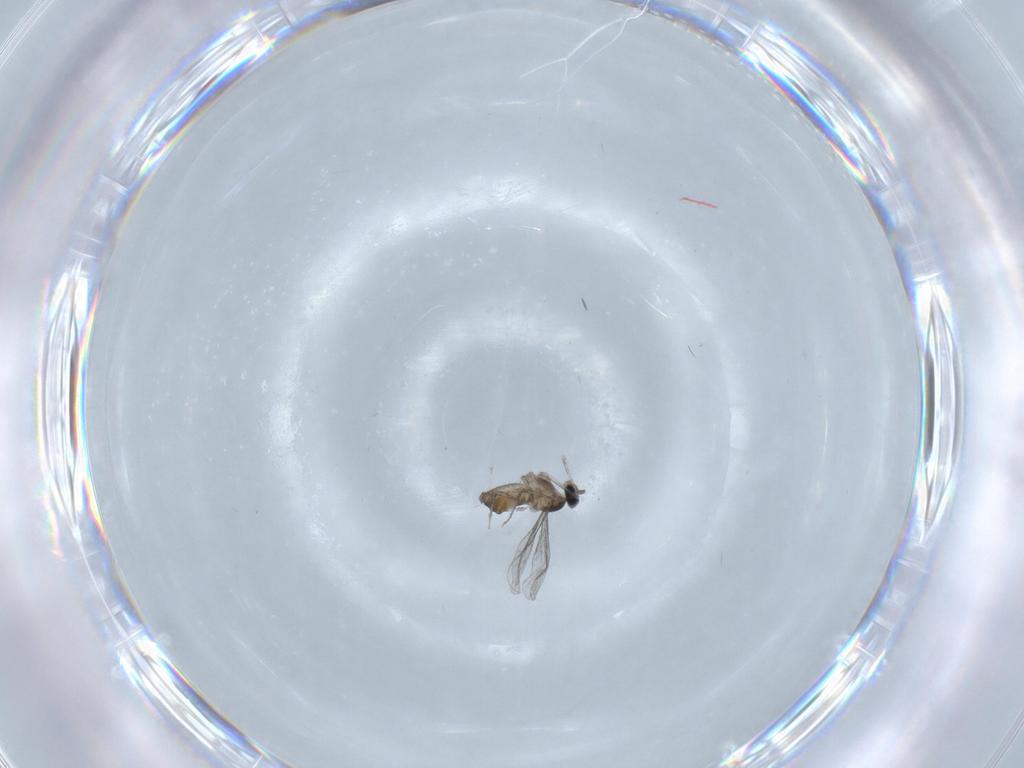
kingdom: Animalia
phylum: Arthropoda
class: Insecta
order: Diptera
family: Cecidomyiidae
